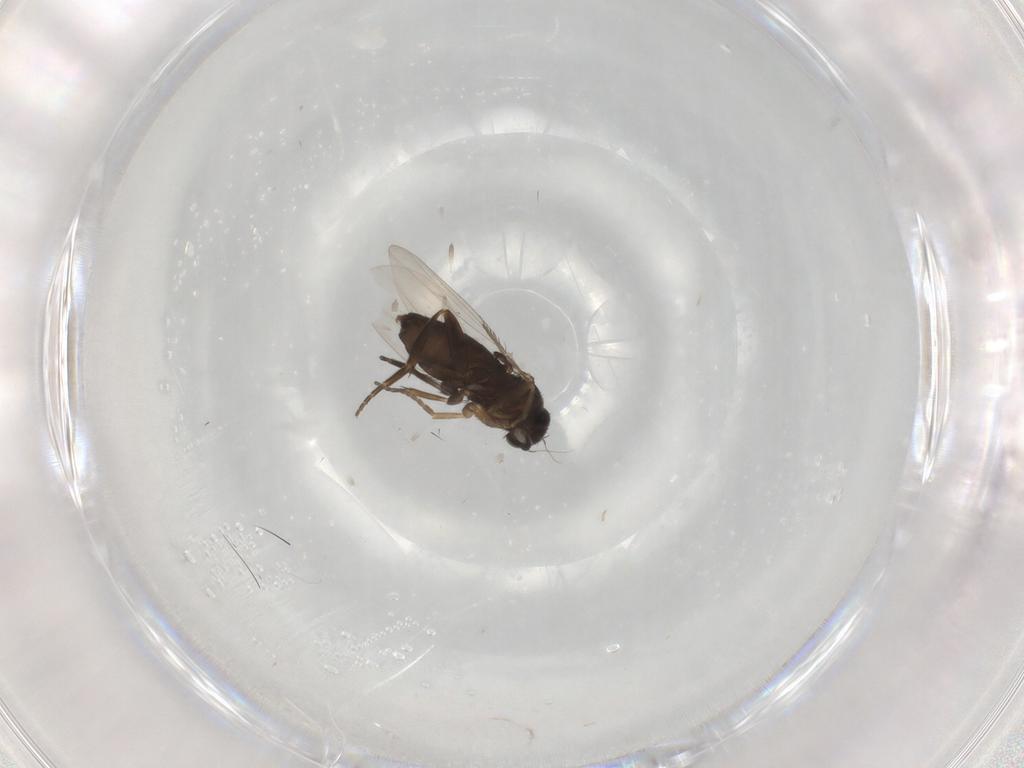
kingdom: Animalia
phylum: Arthropoda
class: Insecta
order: Diptera
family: Phoridae
